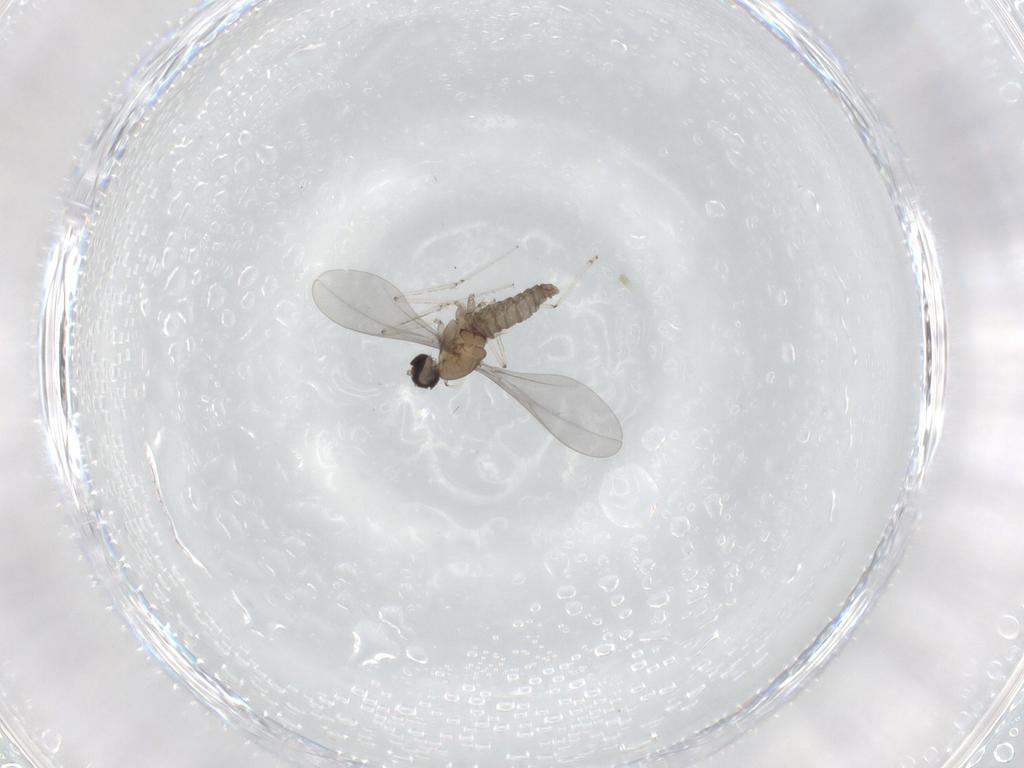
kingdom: Animalia
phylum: Arthropoda
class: Insecta
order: Diptera
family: Cecidomyiidae
